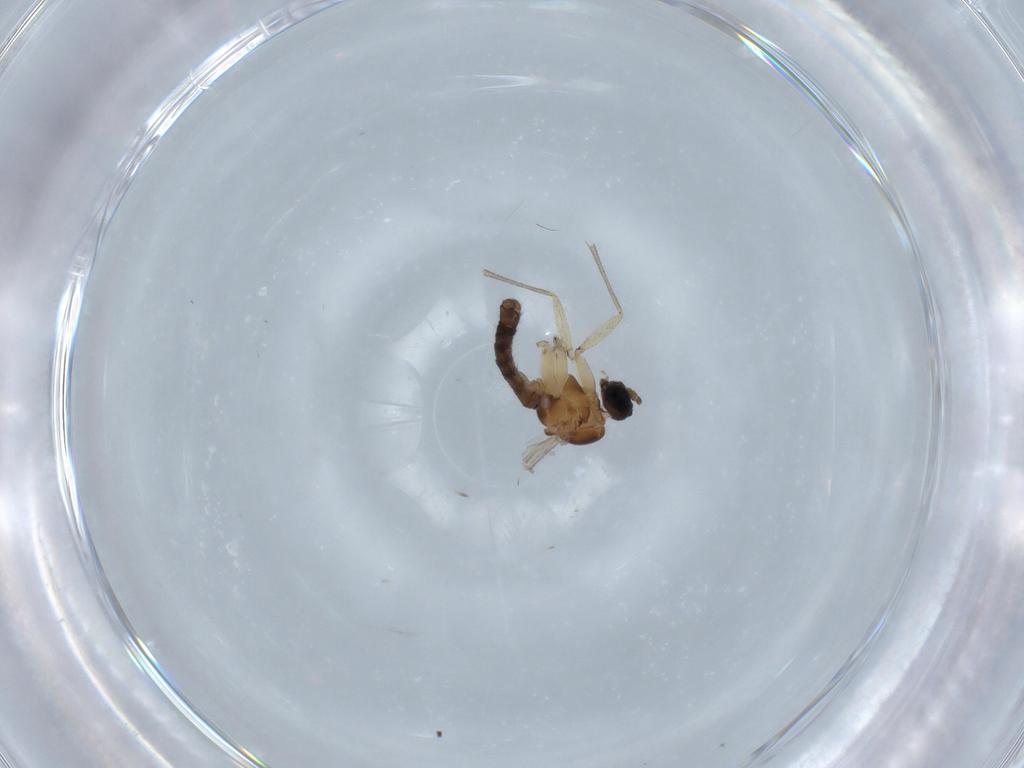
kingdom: Animalia
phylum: Arthropoda
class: Insecta
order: Diptera
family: Sciaridae
